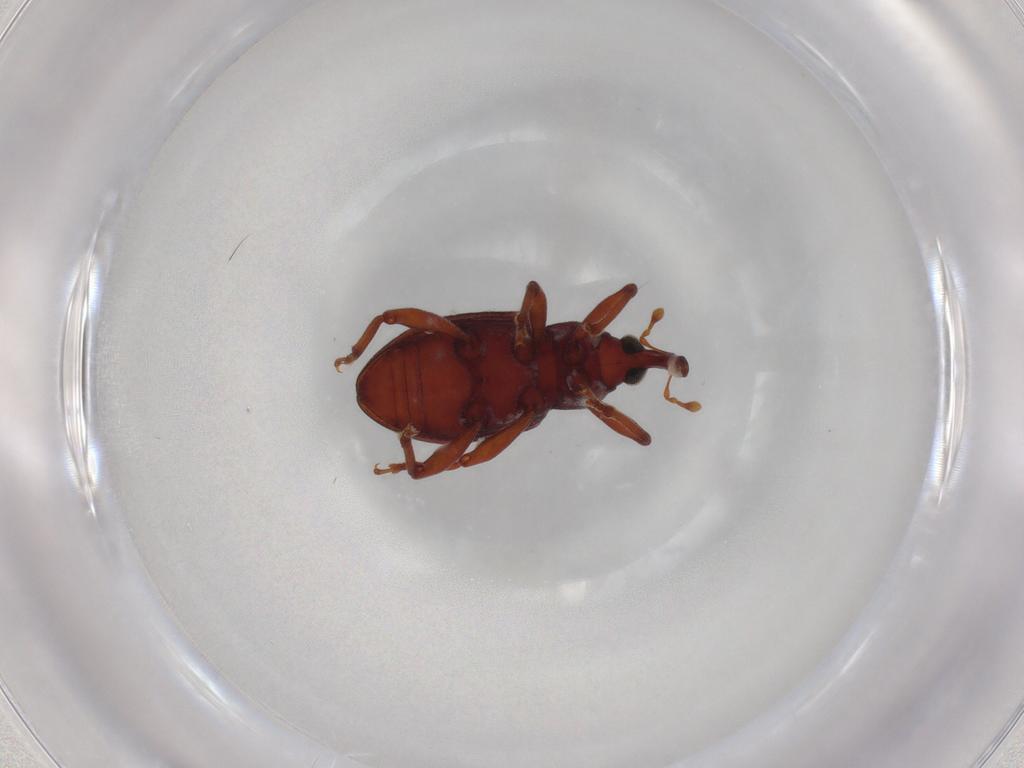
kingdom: Animalia
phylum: Arthropoda
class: Insecta
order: Coleoptera
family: Curculionidae
